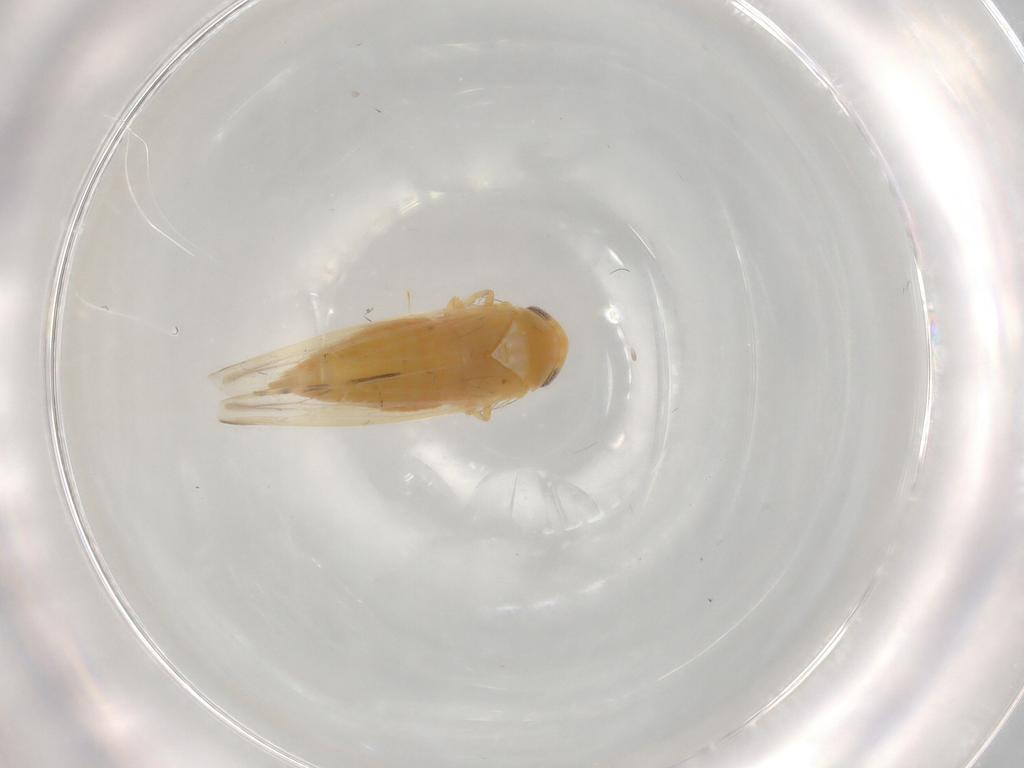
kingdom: Animalia
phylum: Arthropoda
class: Insecta
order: Hemiptera
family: Cicadellidae
